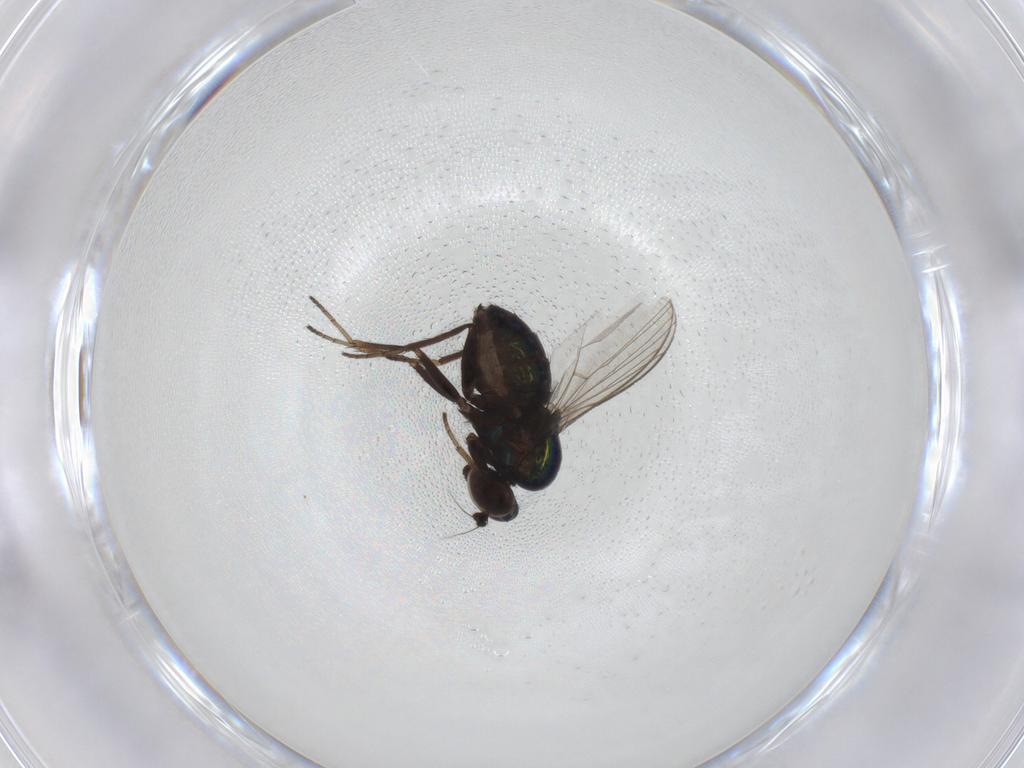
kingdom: Animalia
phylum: Arthropoda
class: Insecta
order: Diptera
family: Dolichopodidae
